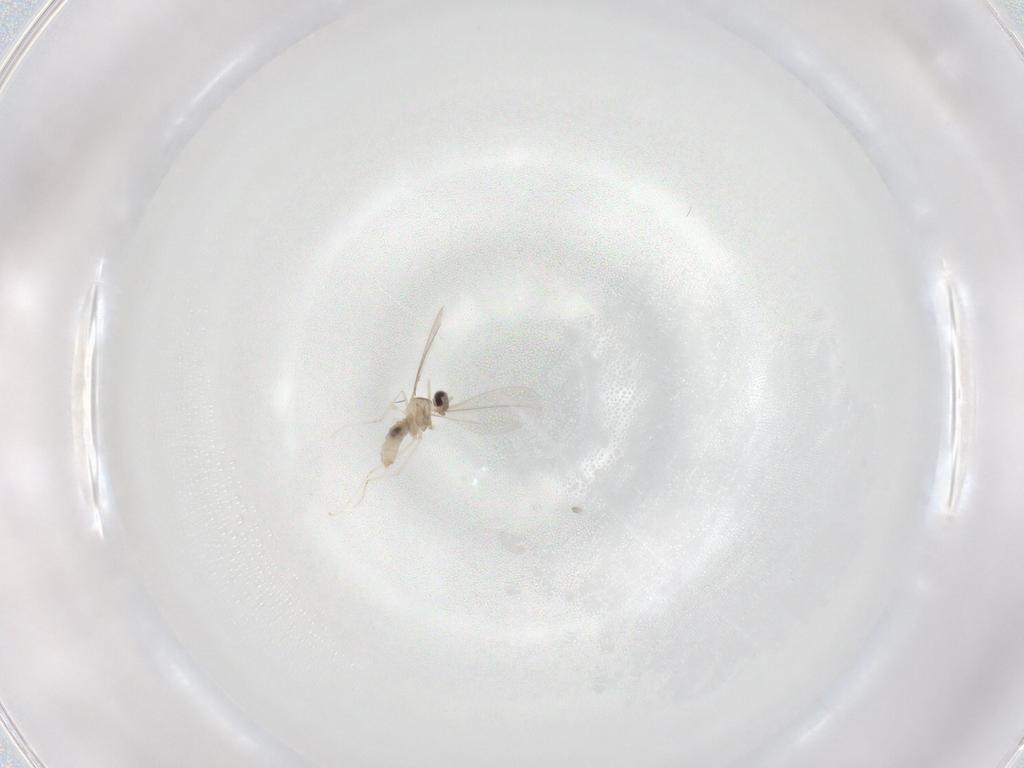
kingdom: Animalia
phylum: Arthropoda
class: Insecta
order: Diptera
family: Cecidomyiidae
